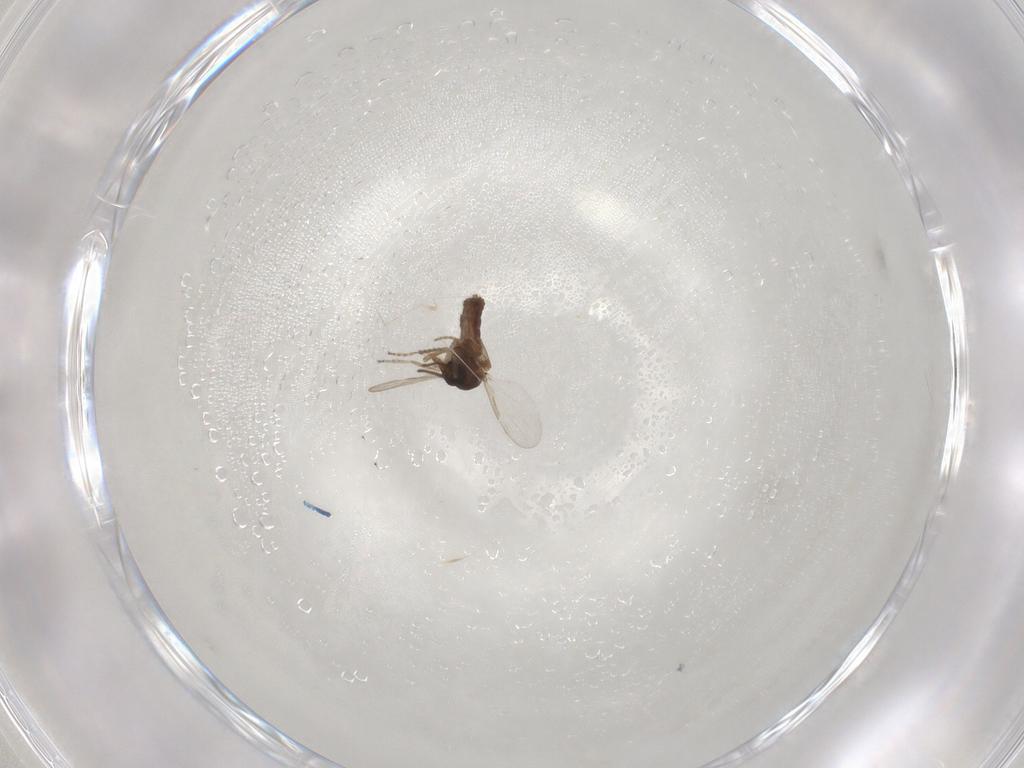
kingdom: Animalia
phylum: Arthropoda
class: Insecta
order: Diptera
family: Ceratopogonidae
